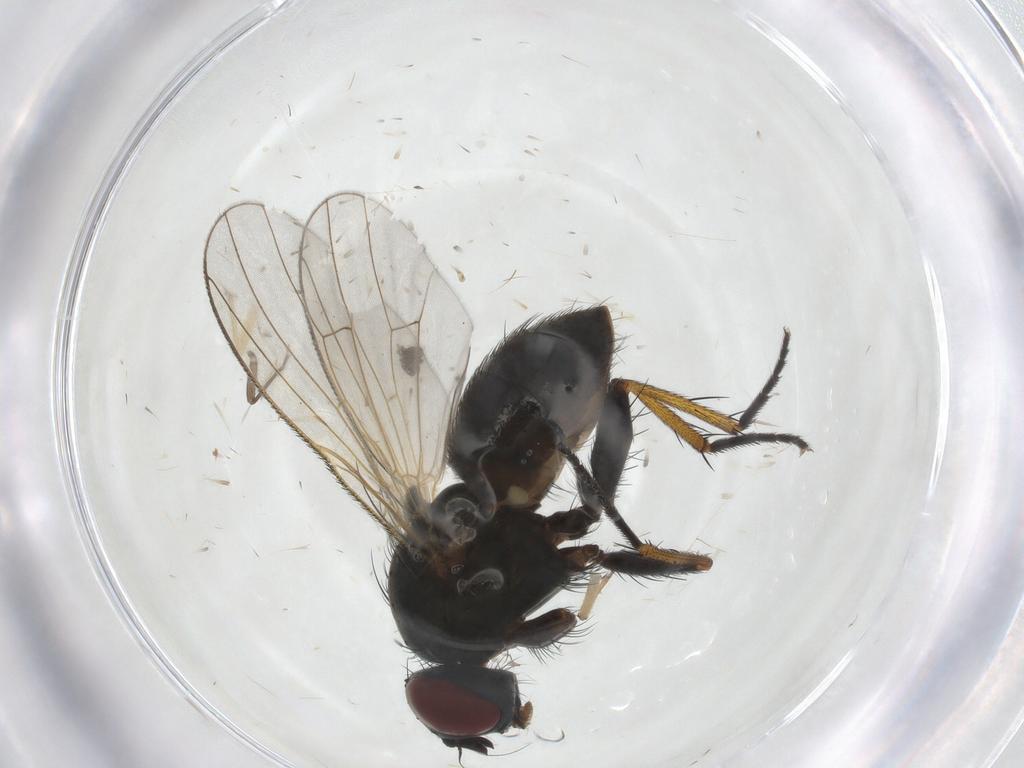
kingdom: Animalia
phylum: Arthropoda
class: Insecta
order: Diptera
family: Muscidae
